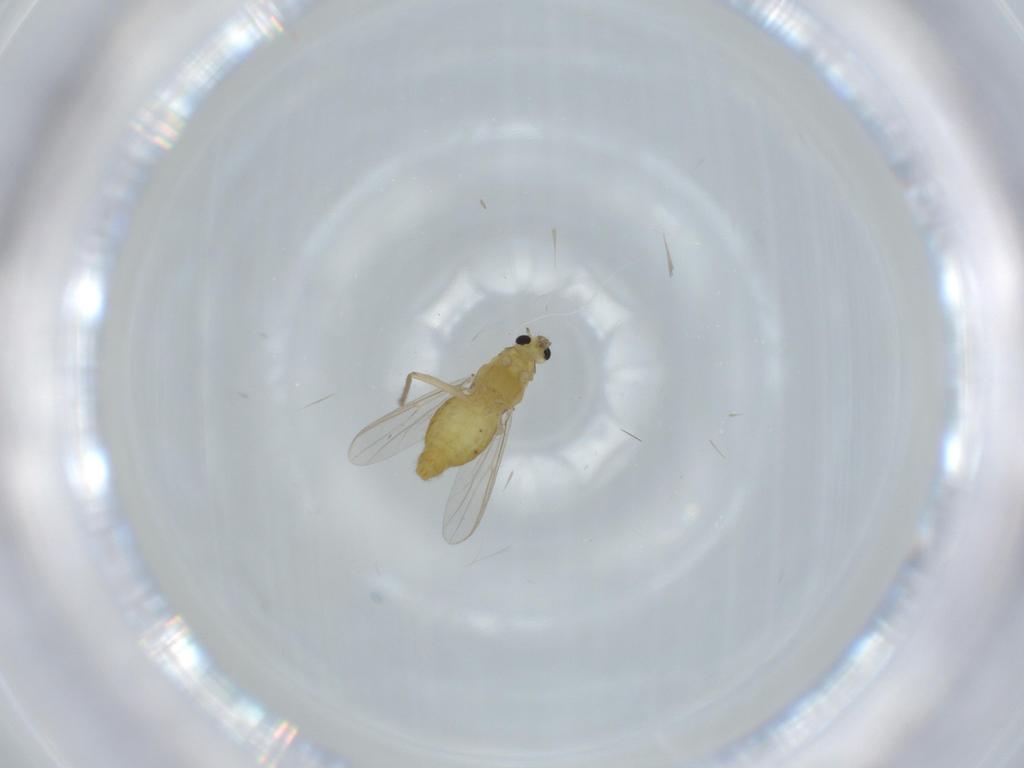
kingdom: Animalia
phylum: Arthropoda
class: Insecta
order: Diptera
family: Chironomidae
